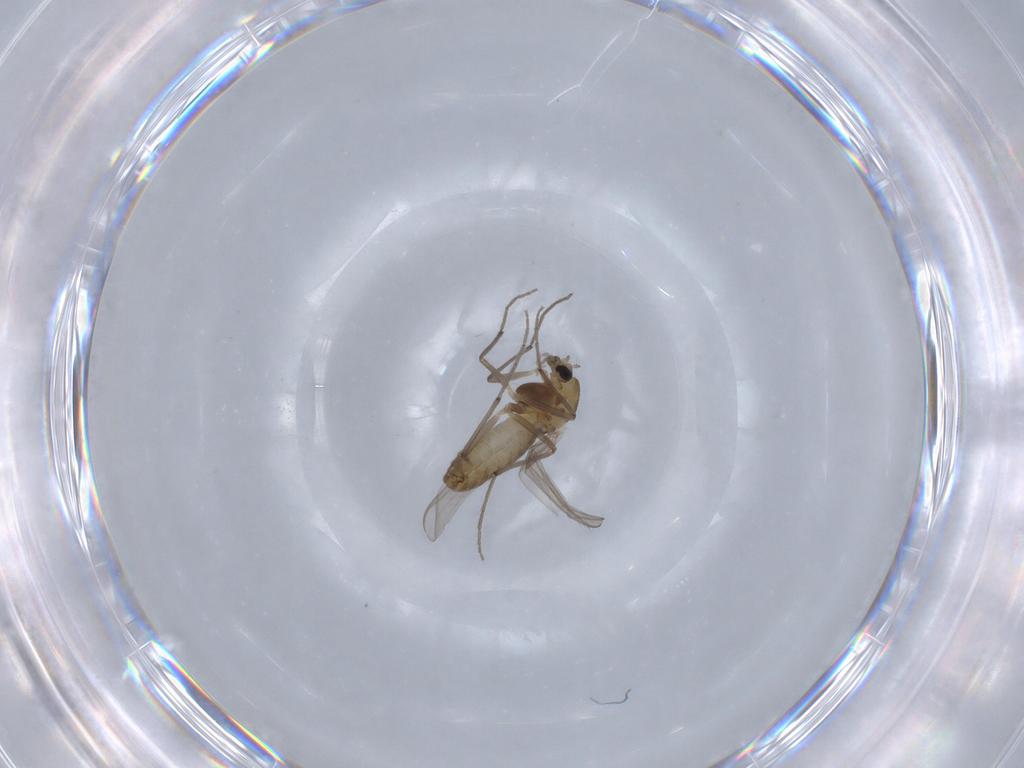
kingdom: Animalia
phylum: Arthropoda
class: Insecta
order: Diptera
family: Chironomidae
